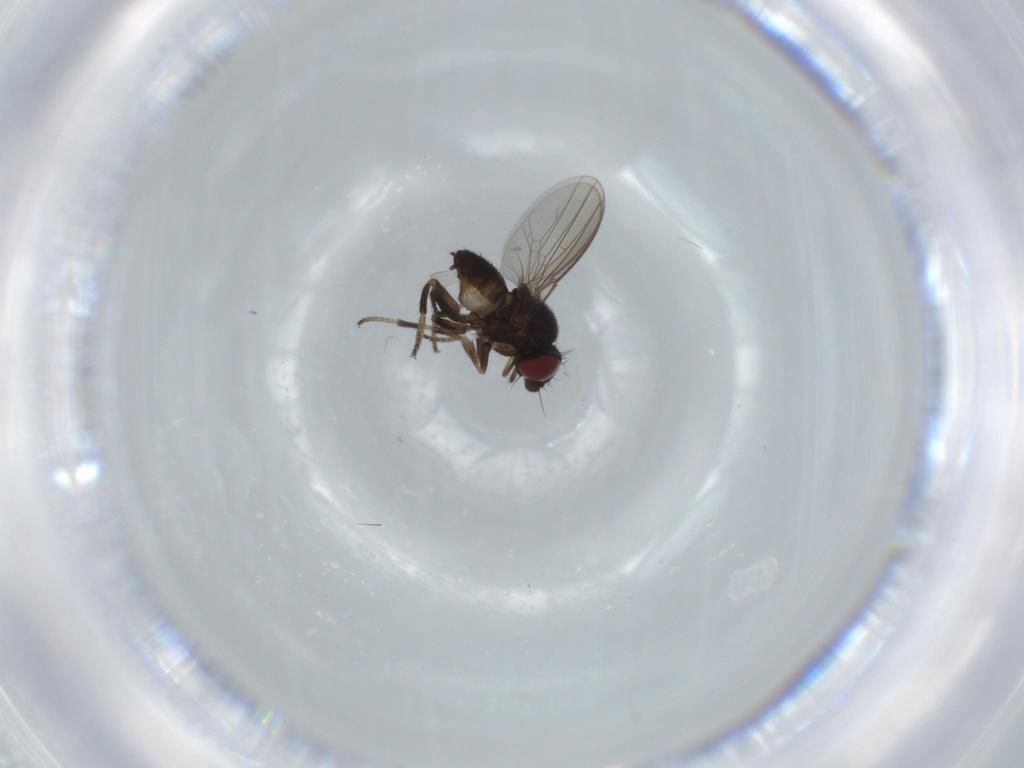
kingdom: Animalia
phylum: Arthropoda
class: Insecta
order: Diptera
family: Milichiidae
